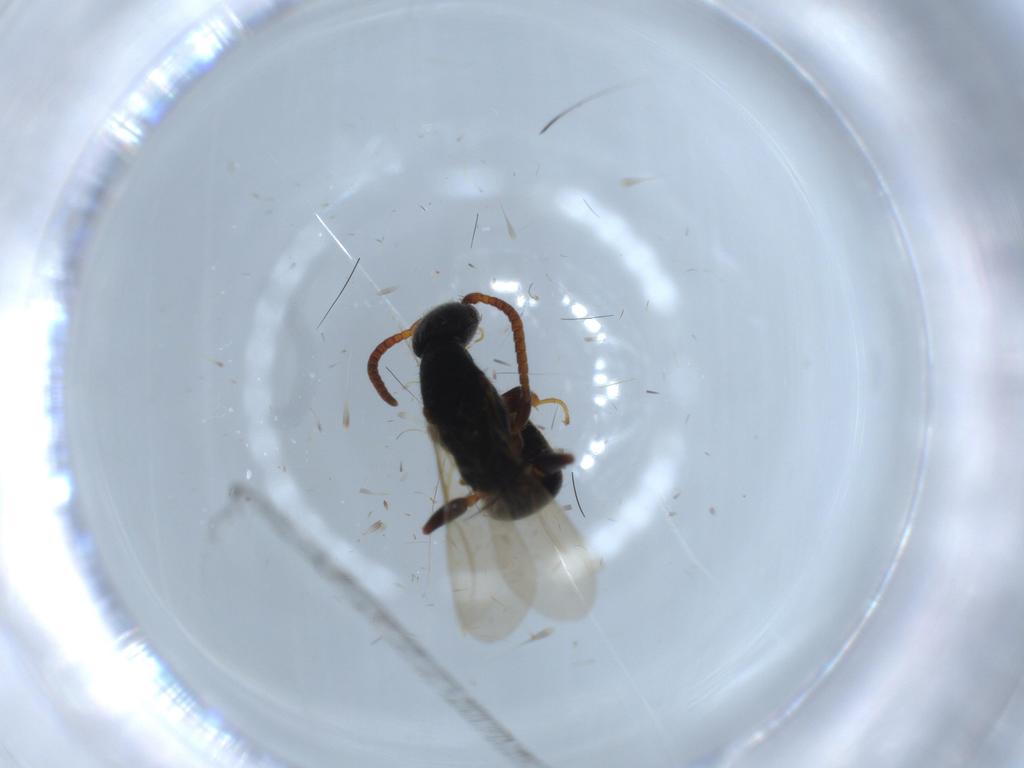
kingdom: Animalia
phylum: Arthropoda
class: Insecta
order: Hymenoptera
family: Bethylidae
